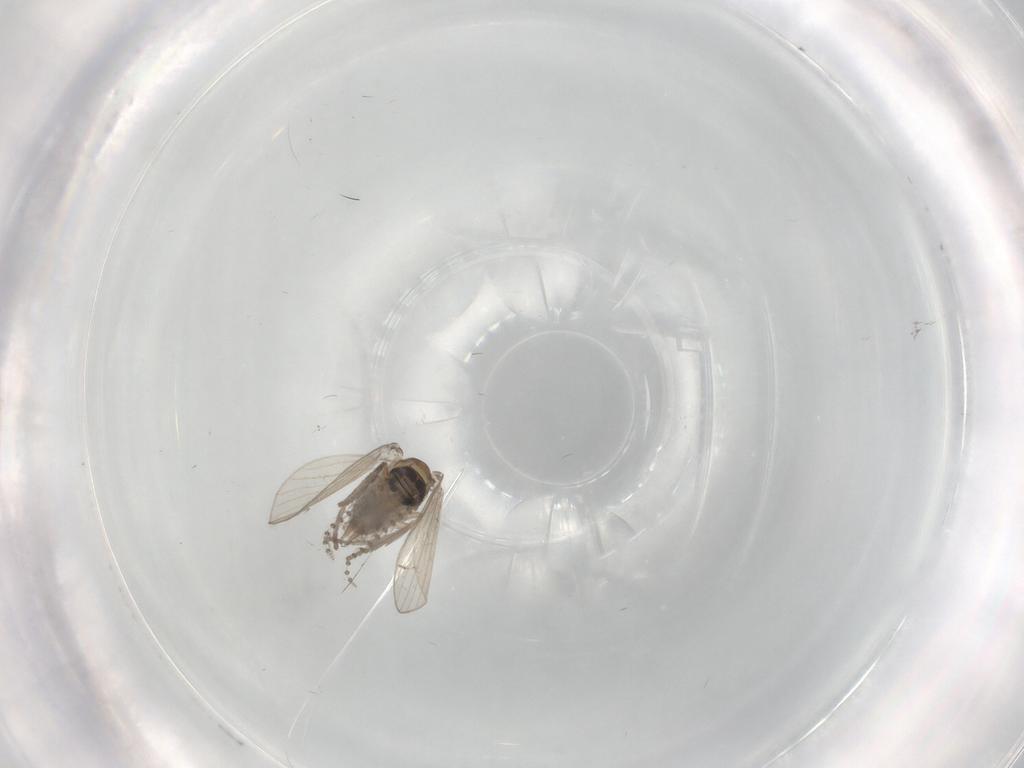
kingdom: Animalia
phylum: Arthropoda
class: Insecta
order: Diptera
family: Psychodidae
